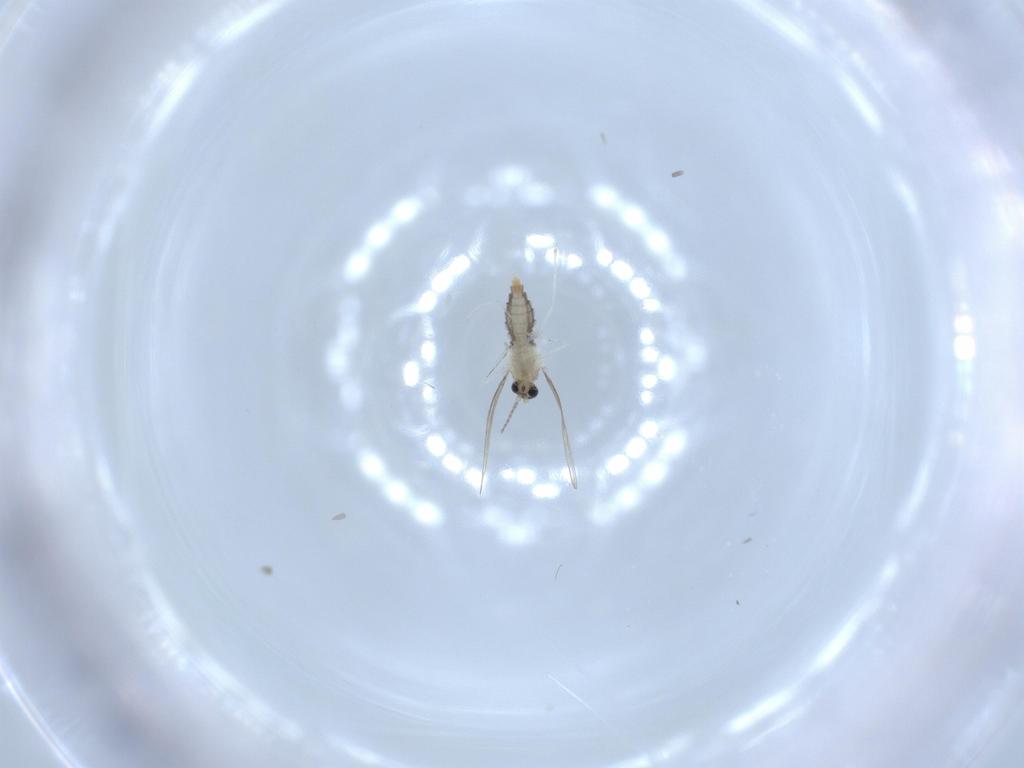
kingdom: Animalia
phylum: Arthropoda
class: Insecta
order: Diptera
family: Cecidomyiidae
